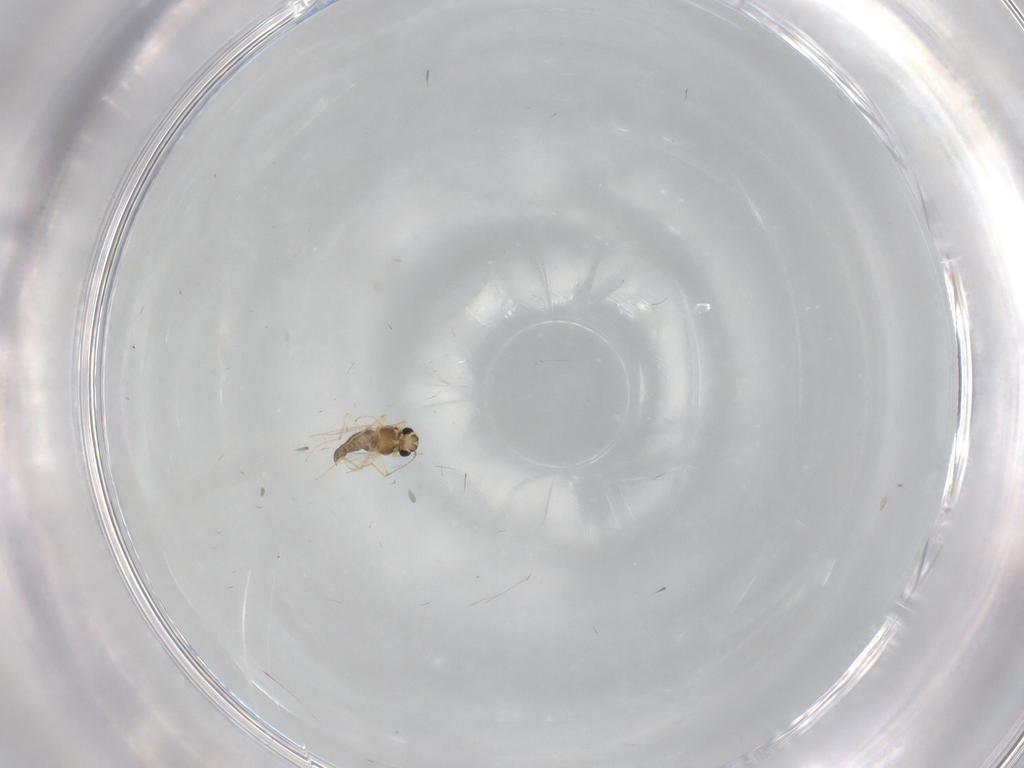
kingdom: Animalia
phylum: Arthropoda
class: Insecta
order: Diptera
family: Chironomidae
